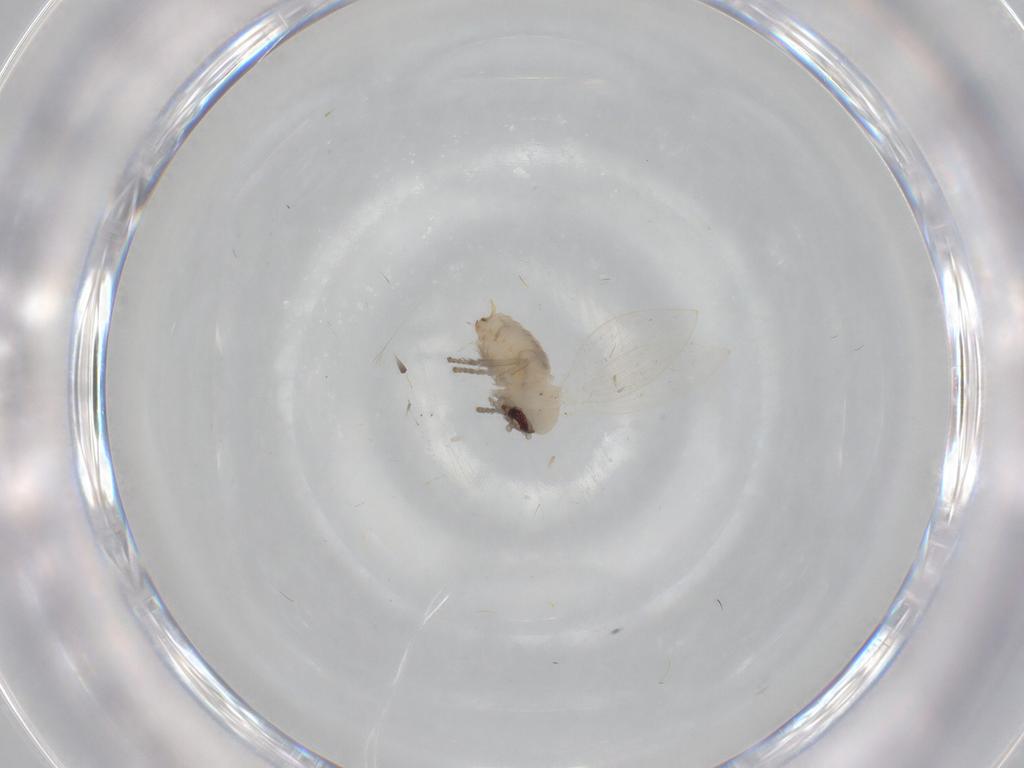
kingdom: Animalia
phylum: Arthropoda
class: Insecta
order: Diptera
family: Psychodidae
